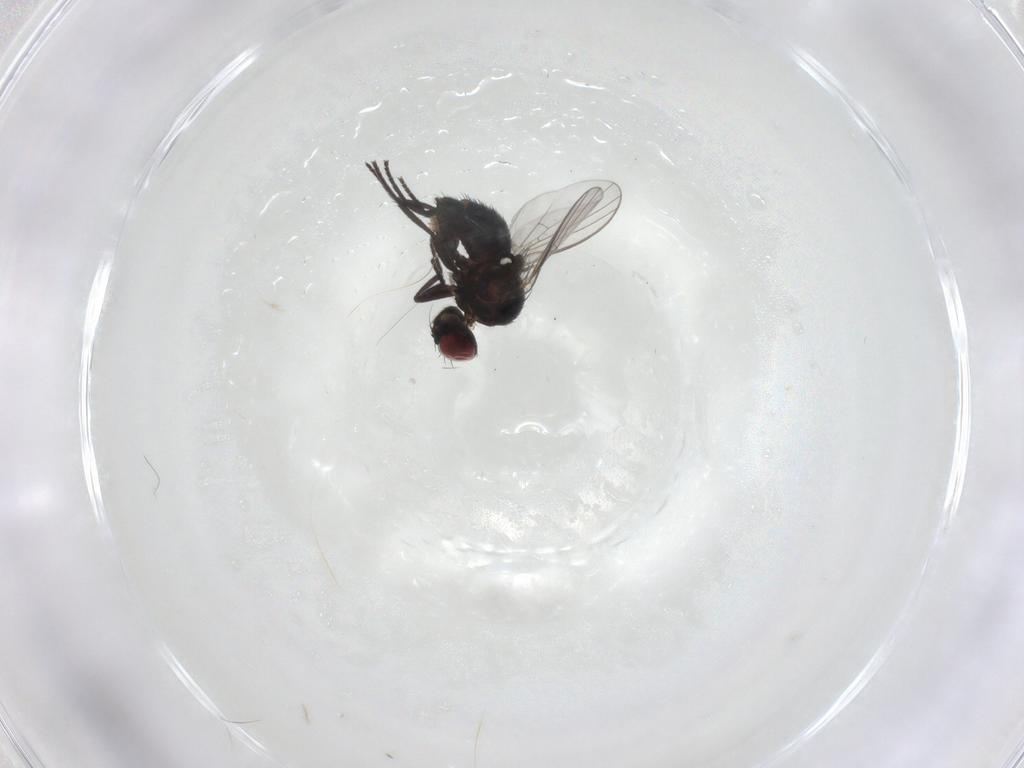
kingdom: Animalia
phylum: Arthropoda
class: Insecta
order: Diptera
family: Agromyzidae
